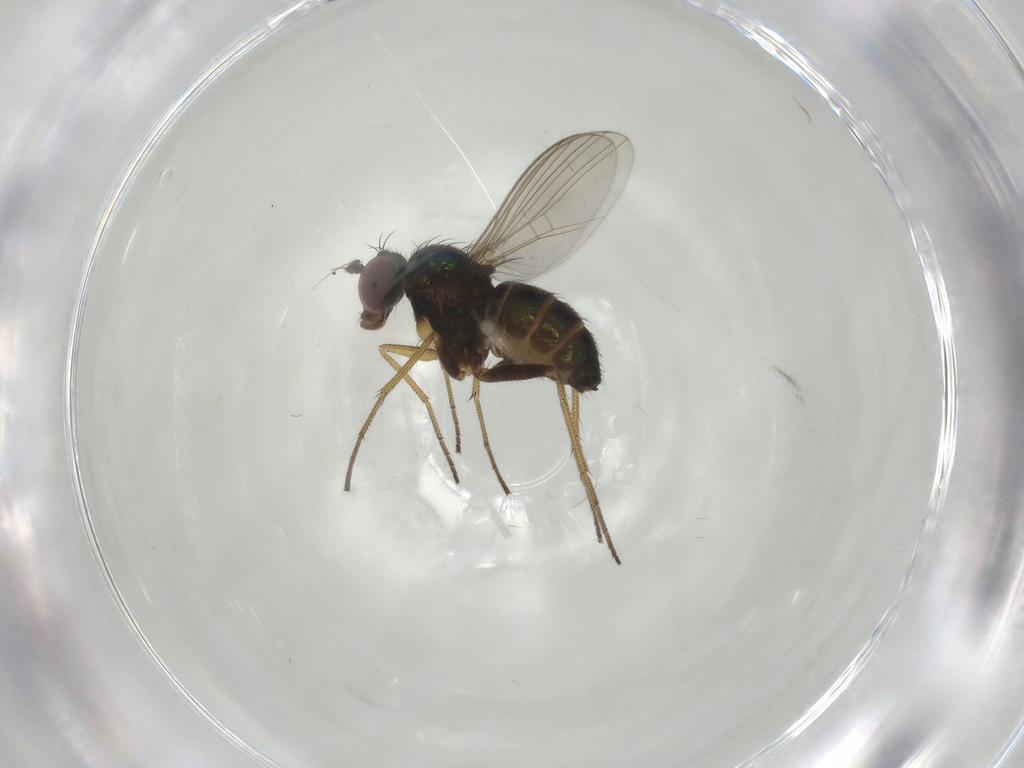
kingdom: Animalia
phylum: Arthropoda
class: Insecta
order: Diptera
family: Dolichopodidae
